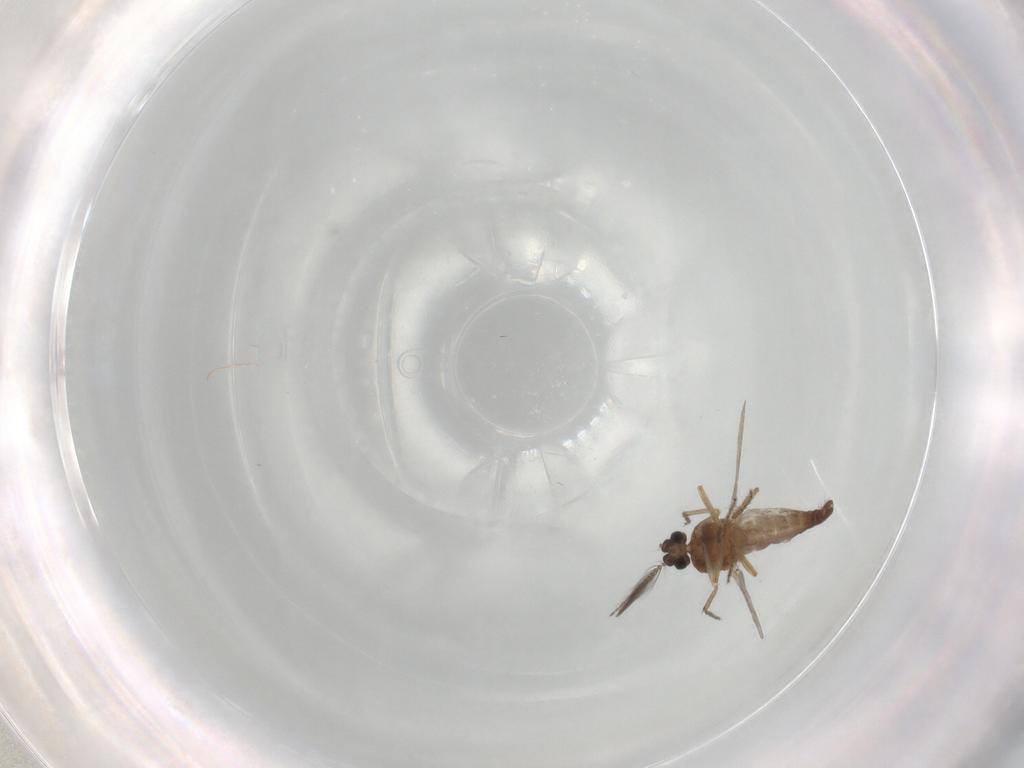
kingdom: Animalia
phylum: Arthropoda
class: Insecta
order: Diptera
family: Ceratopogonidae
